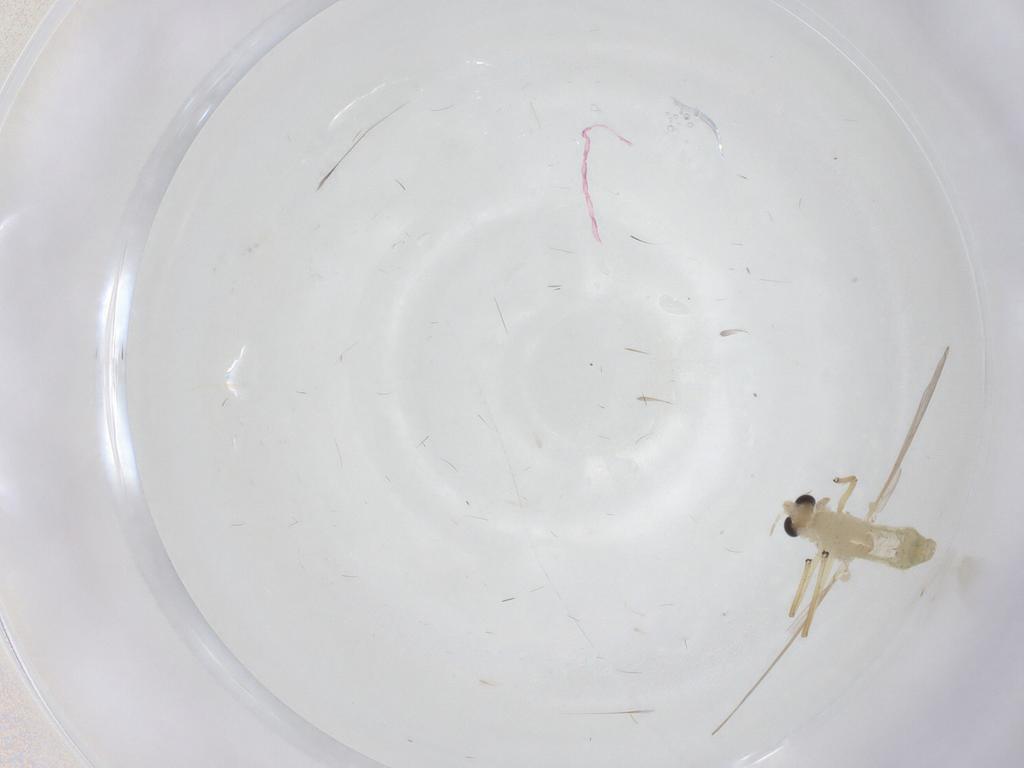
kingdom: Animalia
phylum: Arthropoda
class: Insecta
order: Diptera
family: Chironomidae
